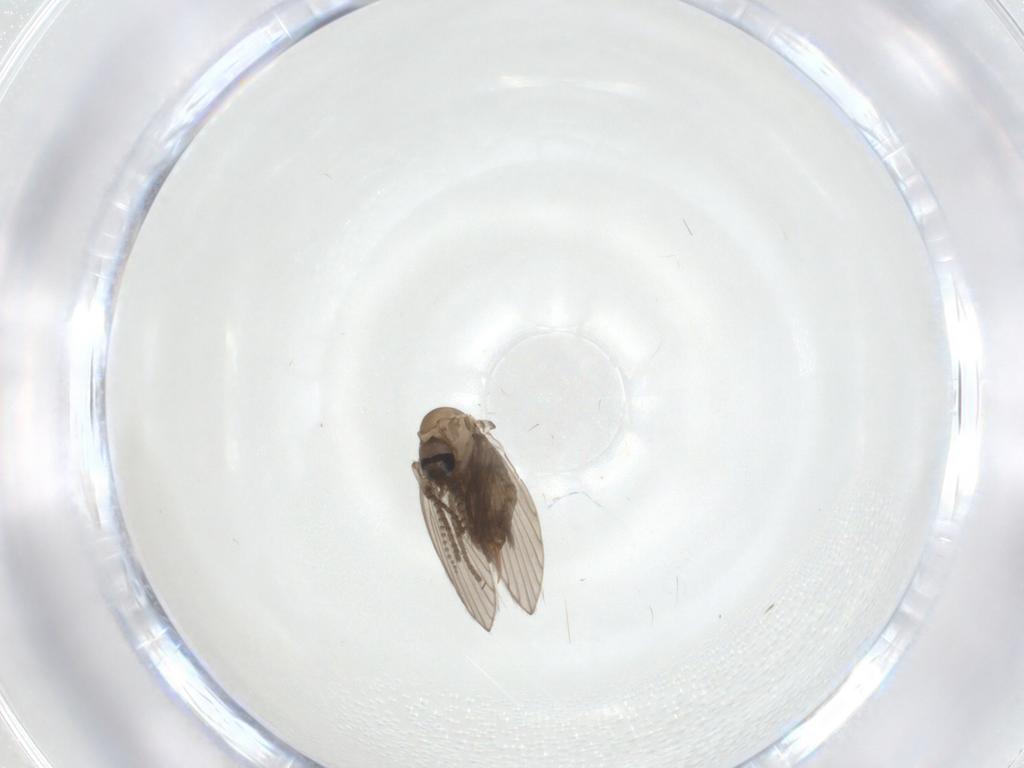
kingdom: Animalia
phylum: Arthropoda
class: Insecta
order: Diptera
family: Psychodidae
